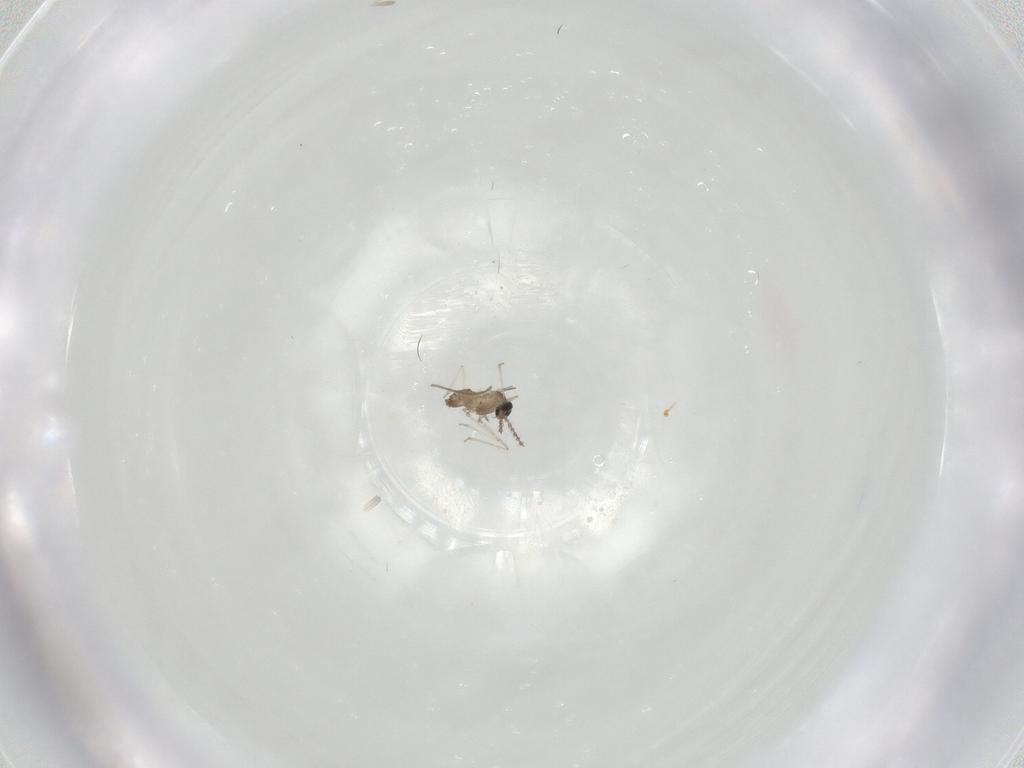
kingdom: Animalia
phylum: Arthropoda
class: Insecta
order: Diptera
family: Cecidomyiidae
